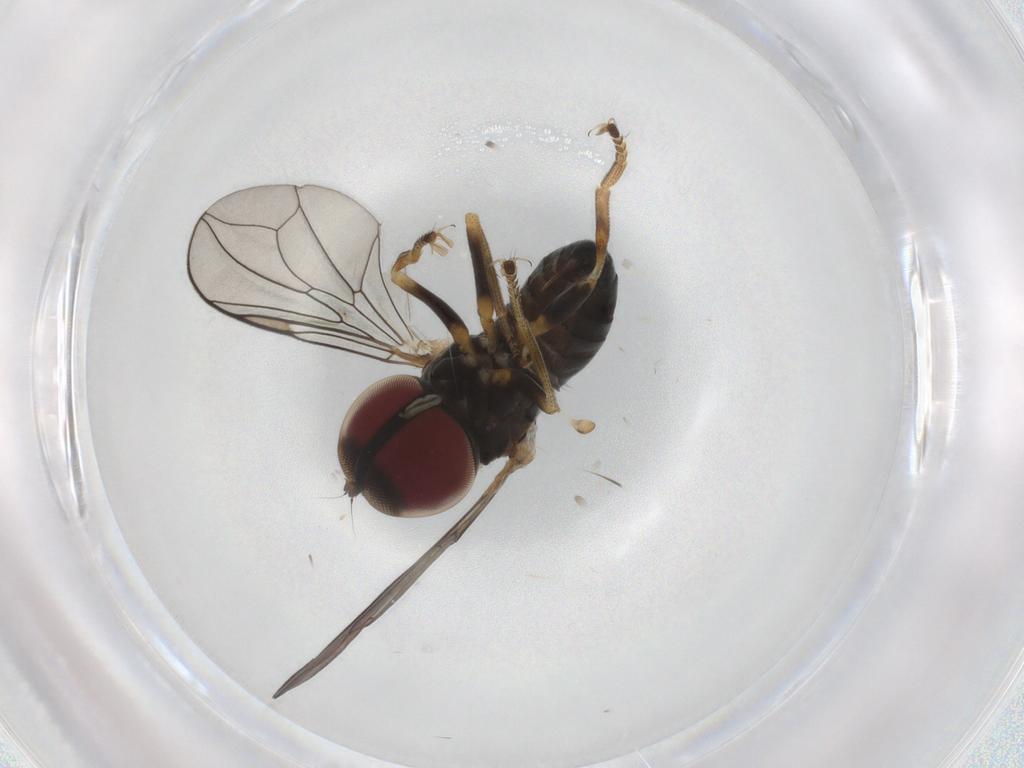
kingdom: Animalia
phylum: Arthropoda
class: Insecta
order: Diptera
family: Pipunculidae
